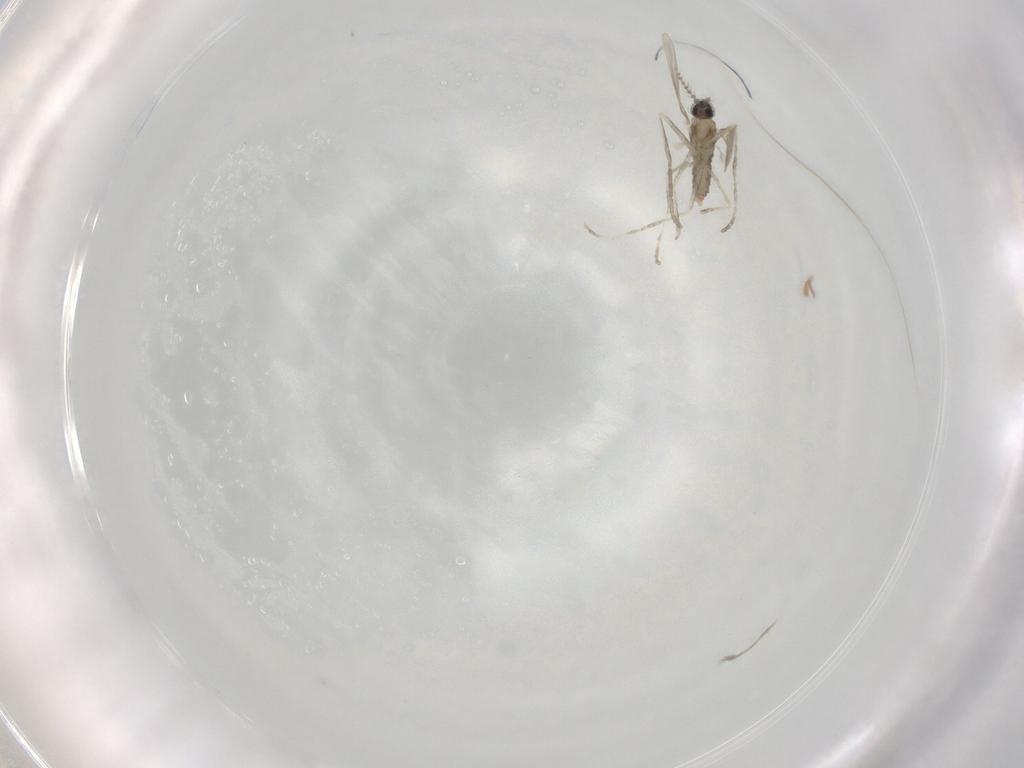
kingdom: Animalia
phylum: Arthropoda
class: Insecta
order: Diptera
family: Cecidomyiidae
